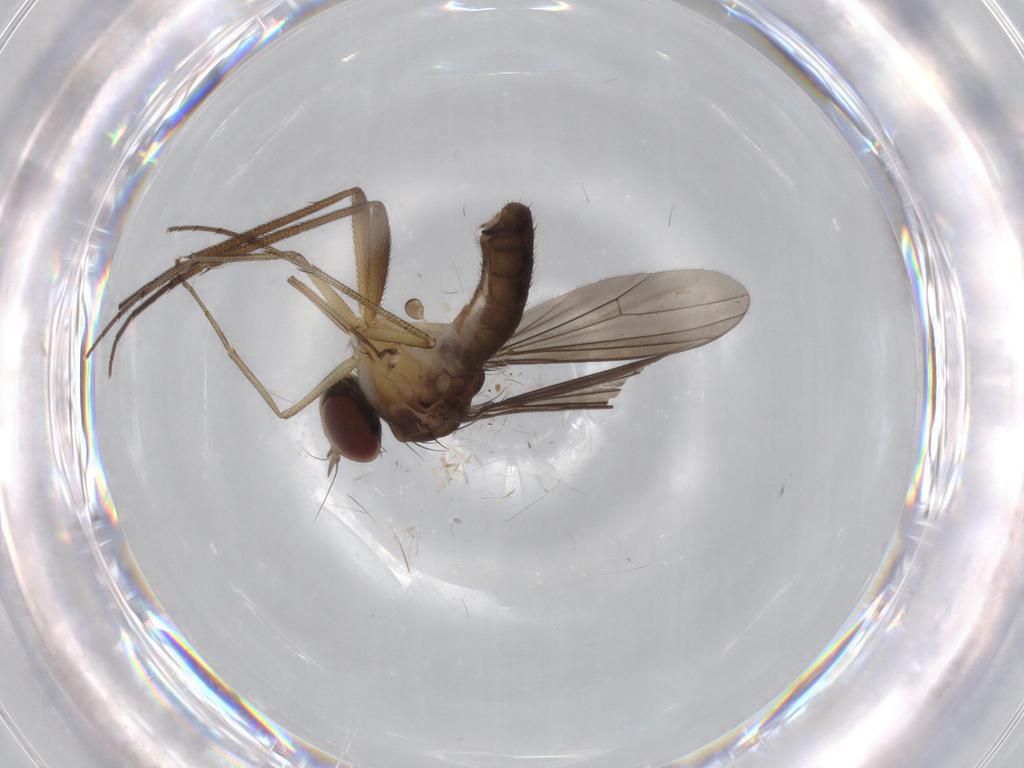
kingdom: Animalia
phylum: Arthropoda
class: Insecta
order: Diptera
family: Dolichopodidae
